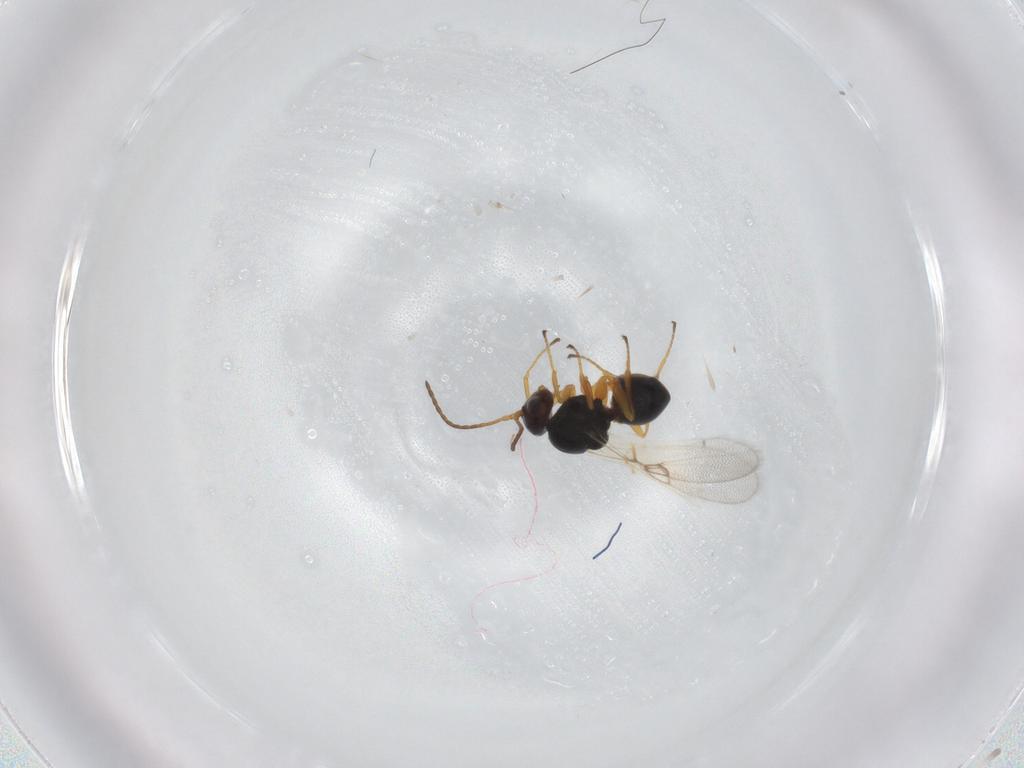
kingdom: Animalia
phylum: Arthropoda
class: Insecta
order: Hymenoptera
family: Figitidae
